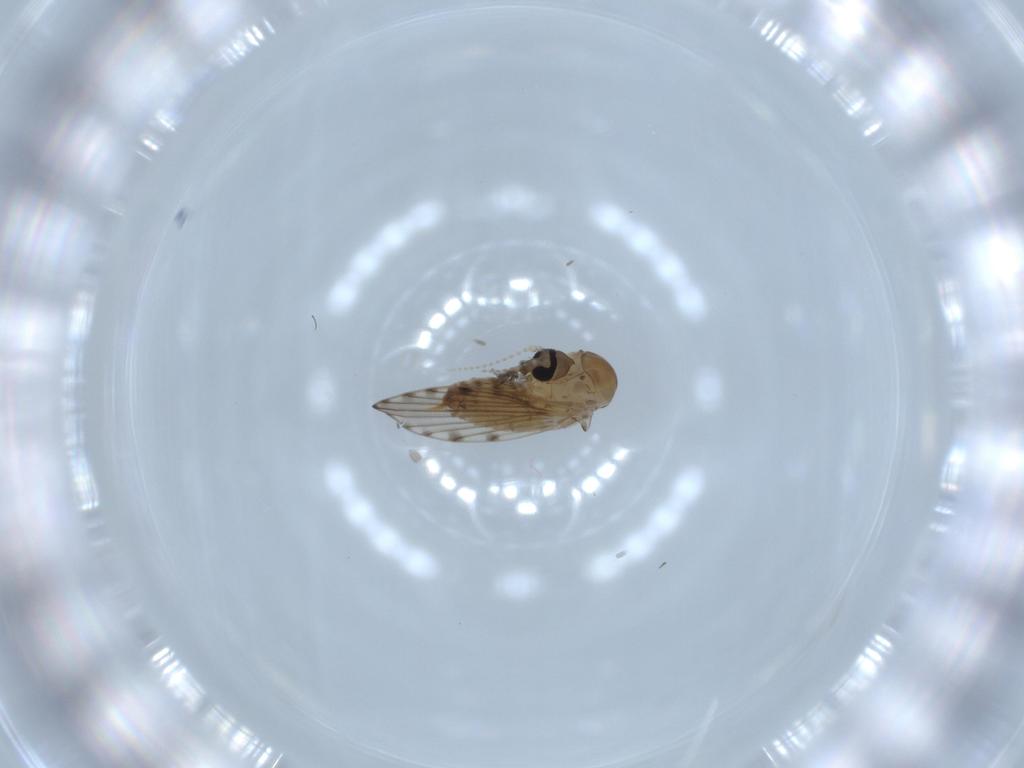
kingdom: Animalia
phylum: Arthropoda
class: Insecta
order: Diptera
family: Psychodidae
